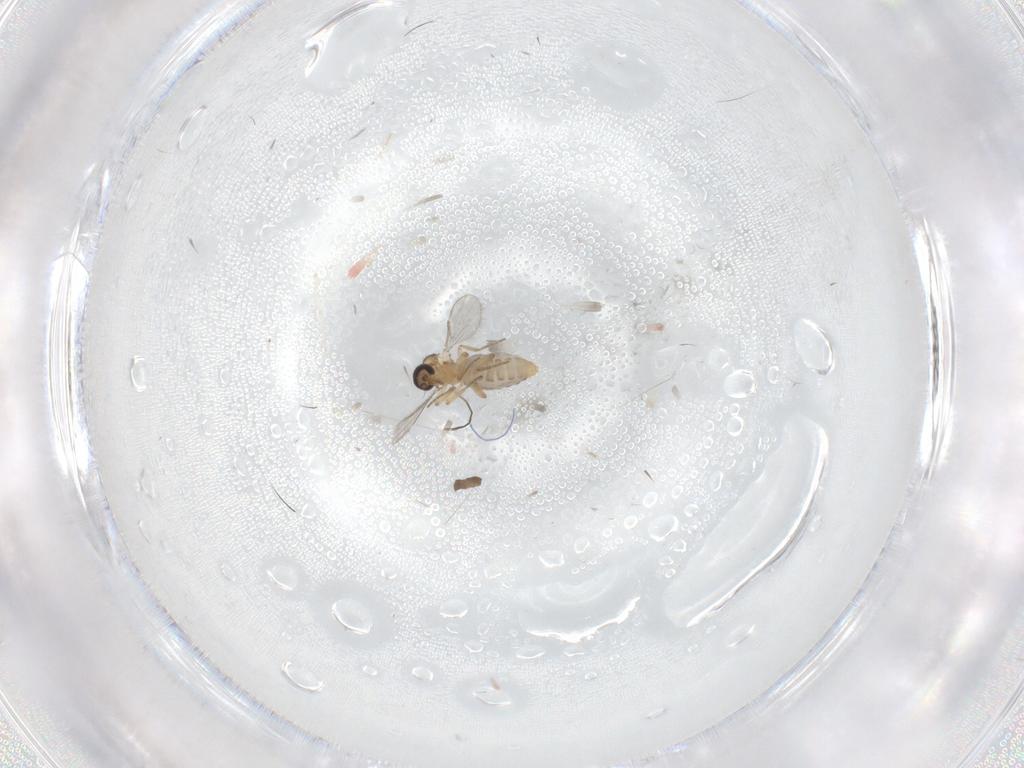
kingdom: Animalia
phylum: Arthropoda
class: Insecta
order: Diptera
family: Ceratopogonidae
